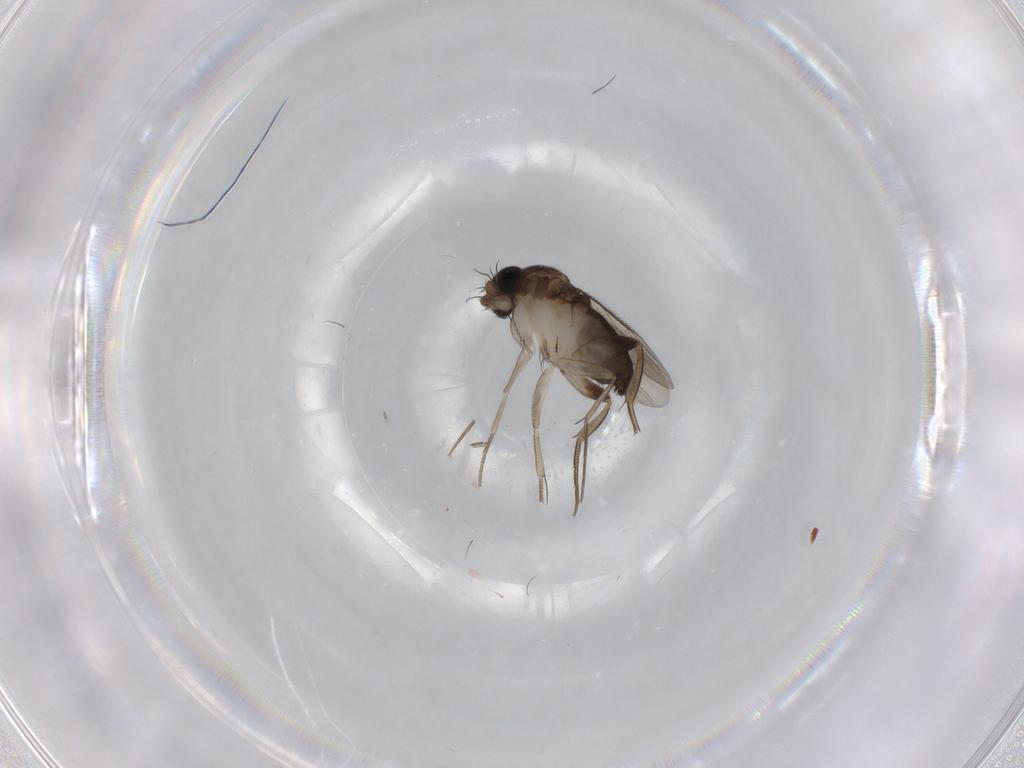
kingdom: Animalia
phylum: Arthropoda
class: Insecta
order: Diptera
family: Phoridae
